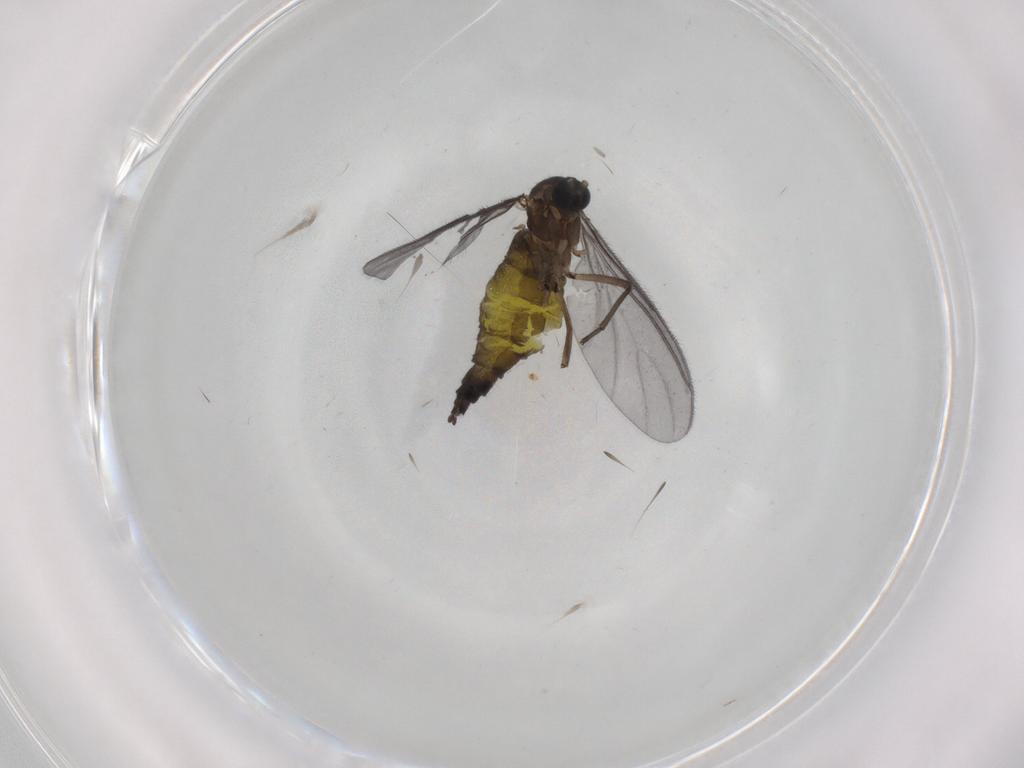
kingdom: Animalia
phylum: Arthropoda
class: Insecta
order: Diptera
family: Sciaridae
